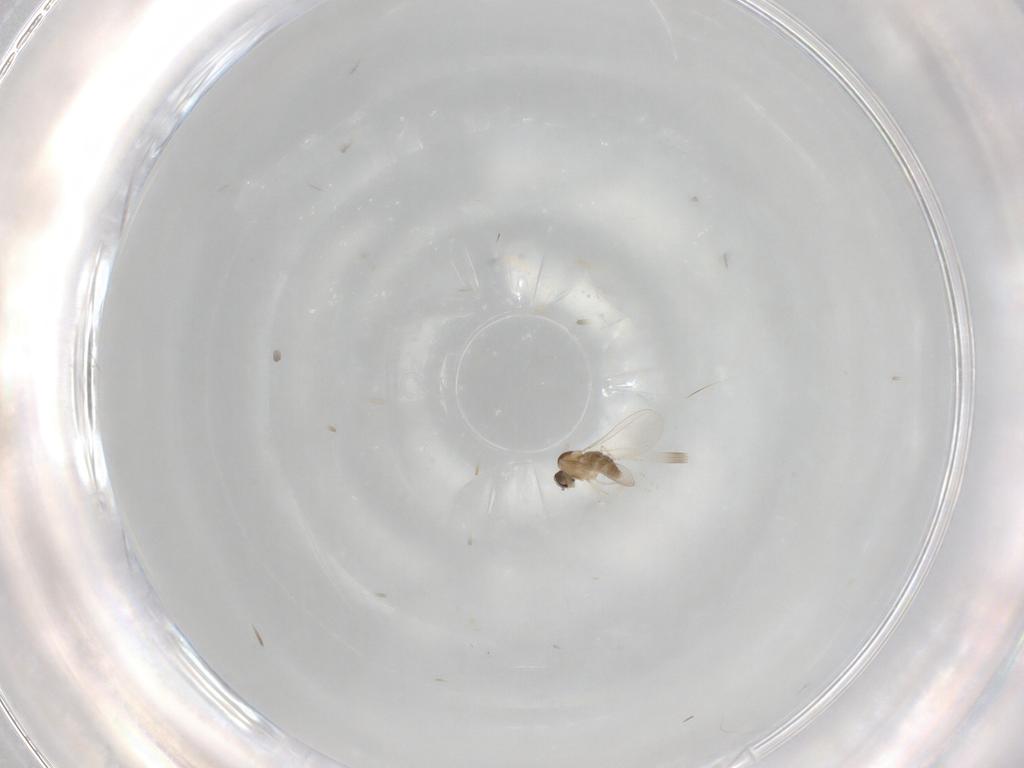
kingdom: Animalia
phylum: Arthropoda
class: Insecta
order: Diptera
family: Cecidomyiidae
